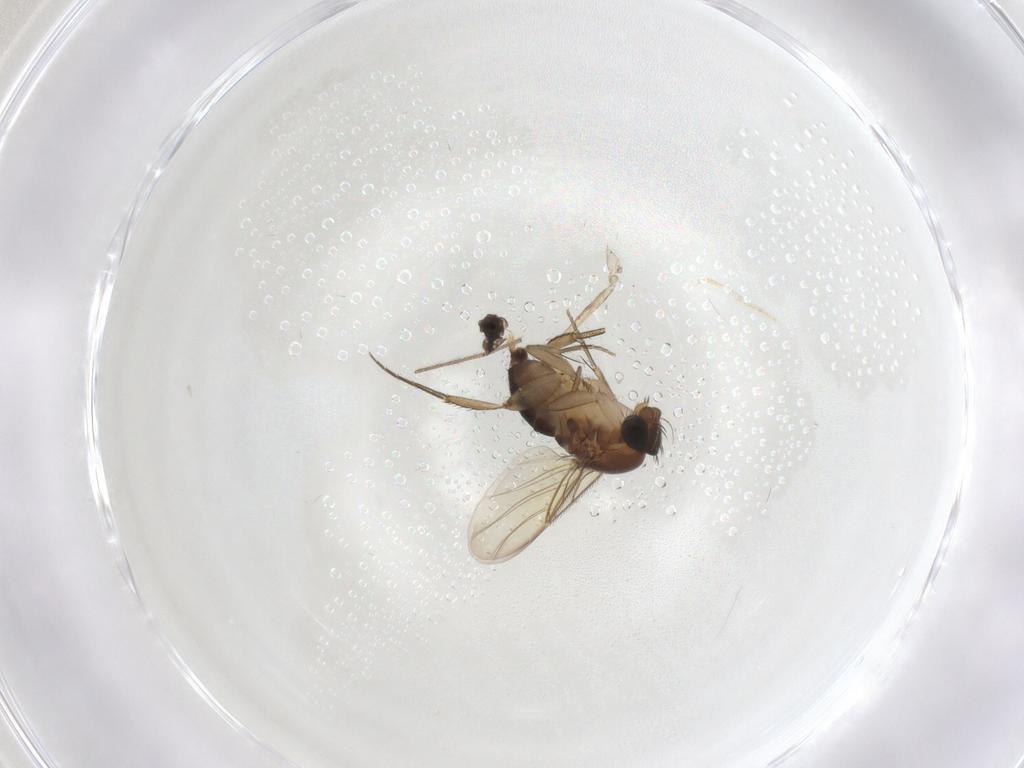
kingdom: Animalia
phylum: Arthropoda
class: Insecta
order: Diptera
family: Phoridae
